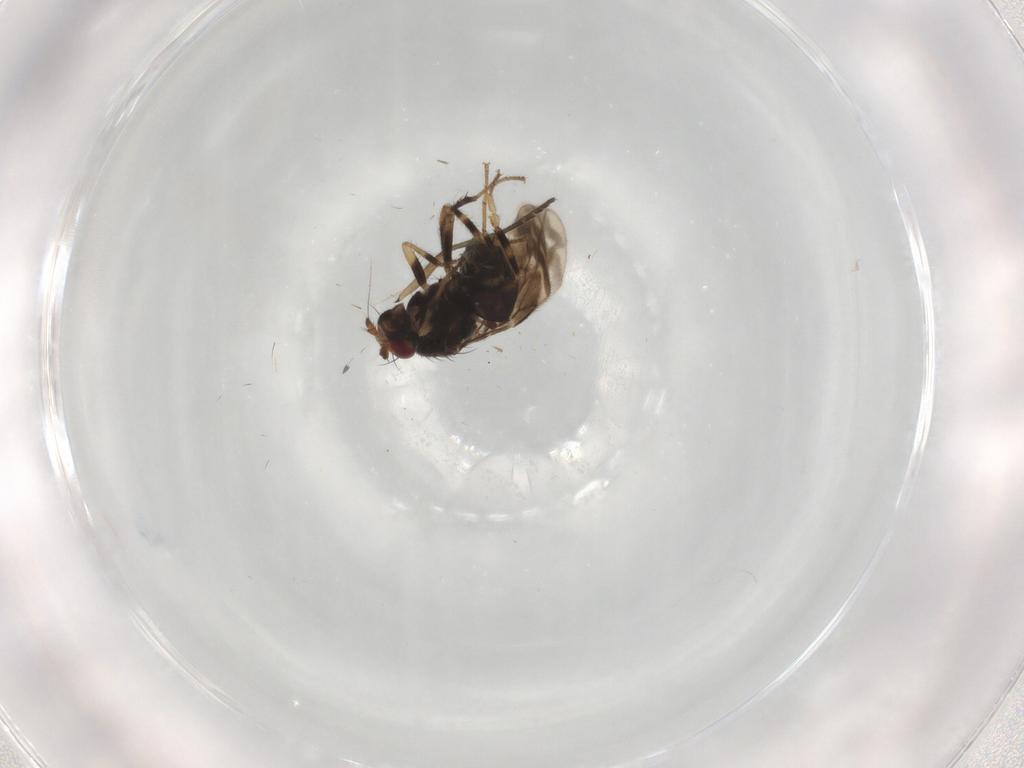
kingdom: Animalia
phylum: Arthropoda
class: Insecta
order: Diptera
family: Sphaeroceridae
